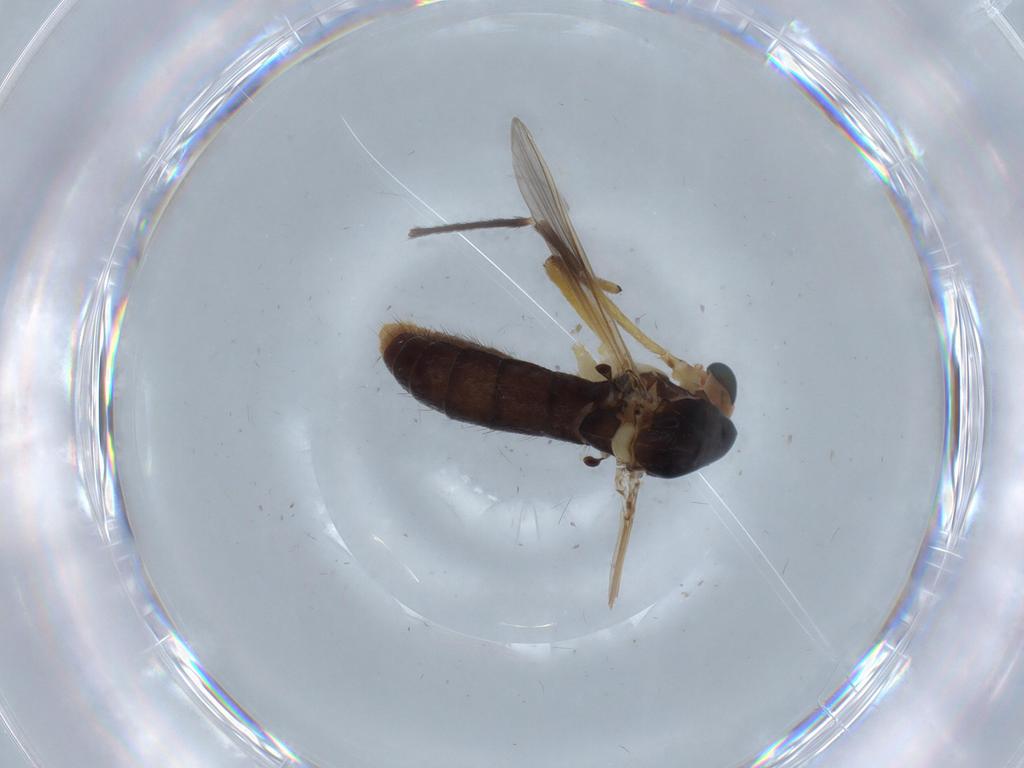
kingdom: Animalia
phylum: Arthropoda
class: Insecta
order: Diptera
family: Chironomidae
